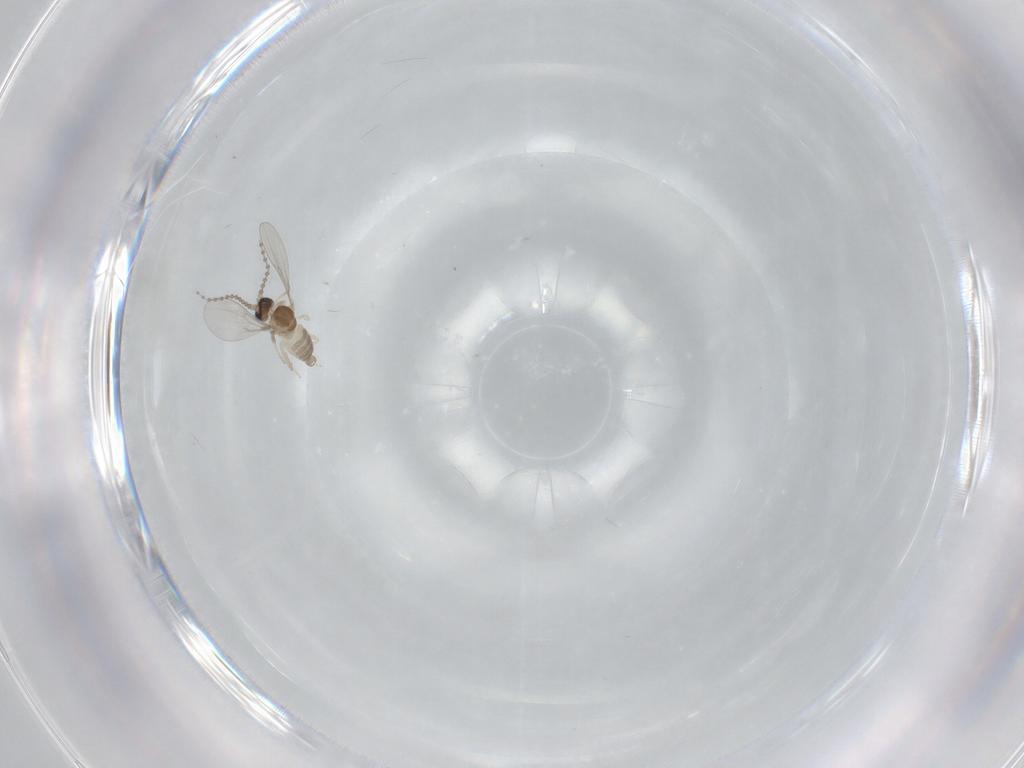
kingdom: Animalia
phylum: Arthropoda
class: Insecta
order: Diptera
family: Cecidomyiidae
